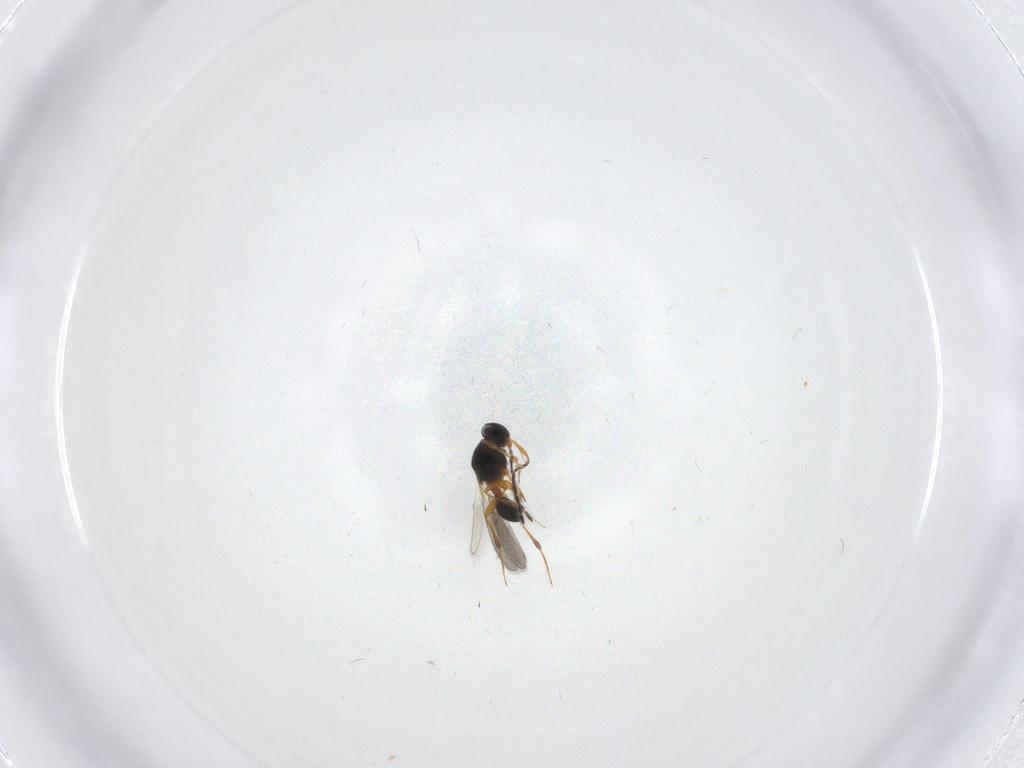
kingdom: Animalia
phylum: Arthropoda
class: Insecta
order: Hymenoptera
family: Platygastridae
